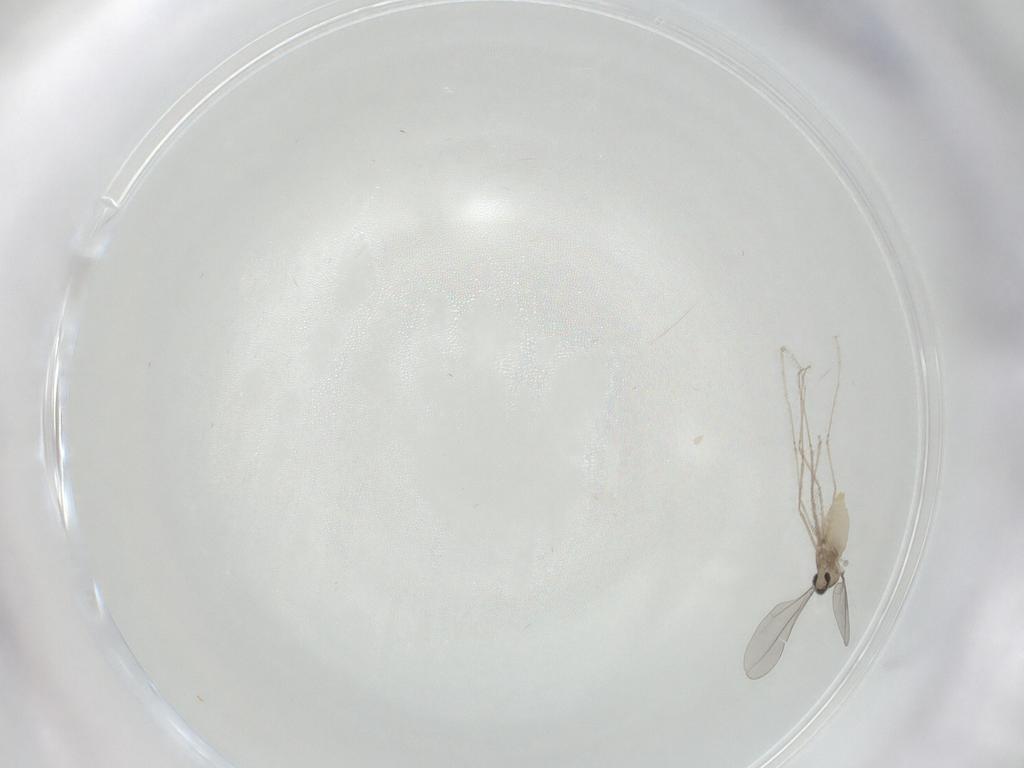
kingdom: Animalia
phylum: Arthropoda
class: Insecta
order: Diptera
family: Cecidomyiidae
